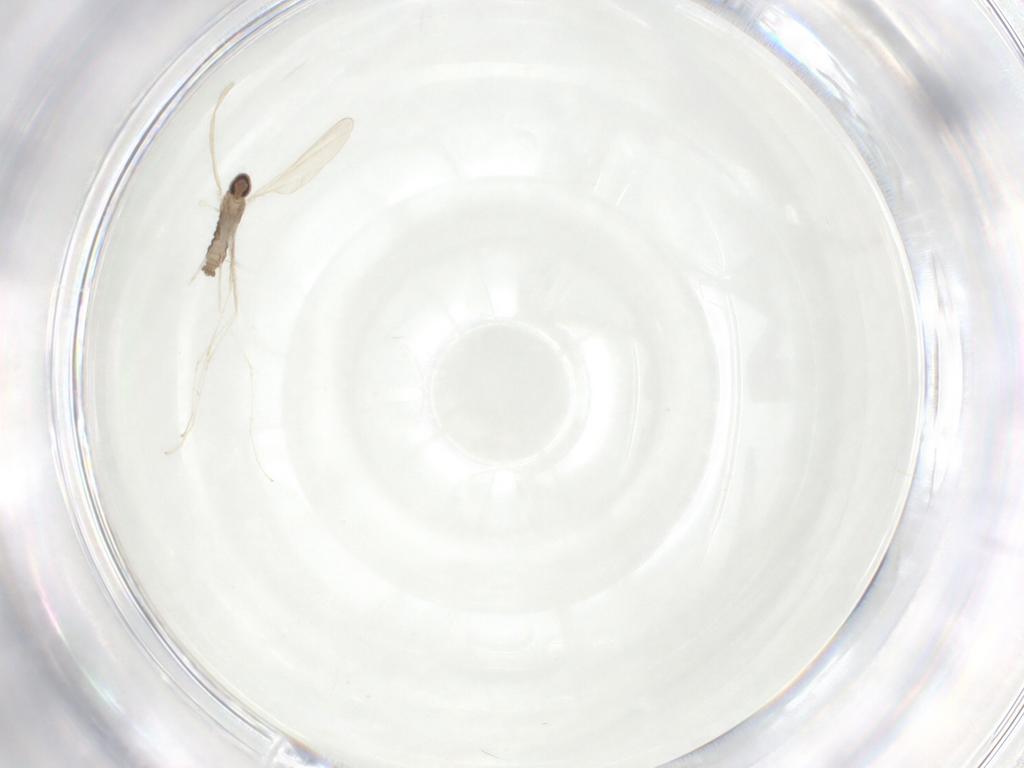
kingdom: Animalia
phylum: Arthropoda
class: Insecta
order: Diptera
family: Cecidomyiidae
